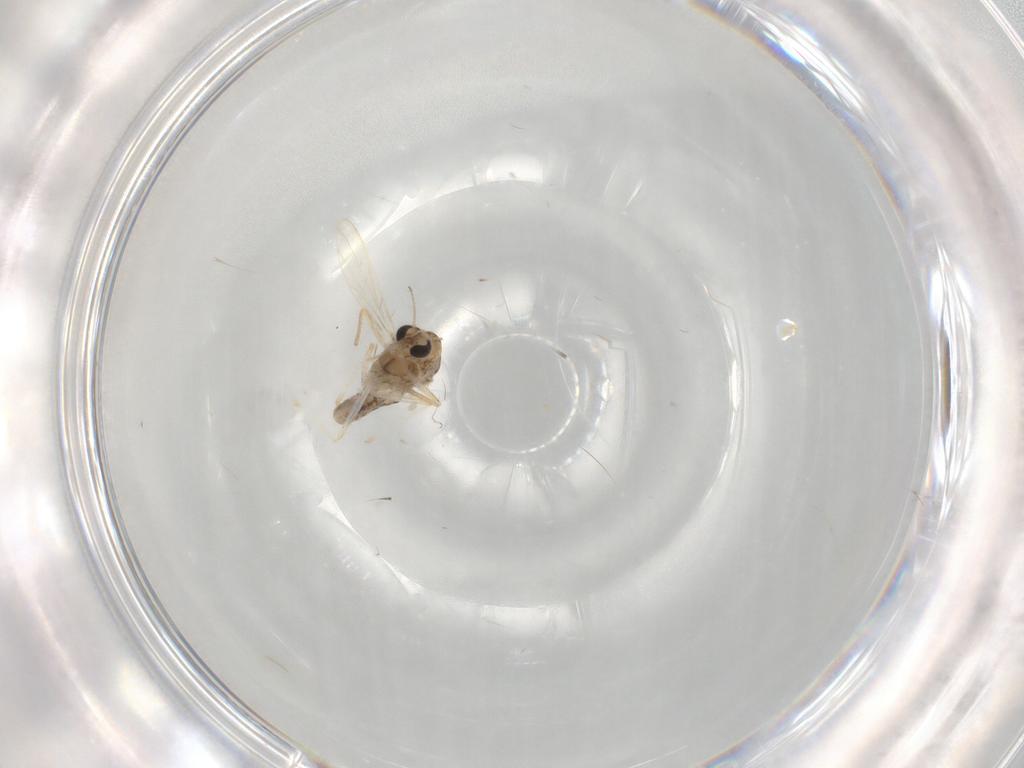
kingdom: Animalia
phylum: Arthropoda
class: Insecta
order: Diptera
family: Chironomidae
